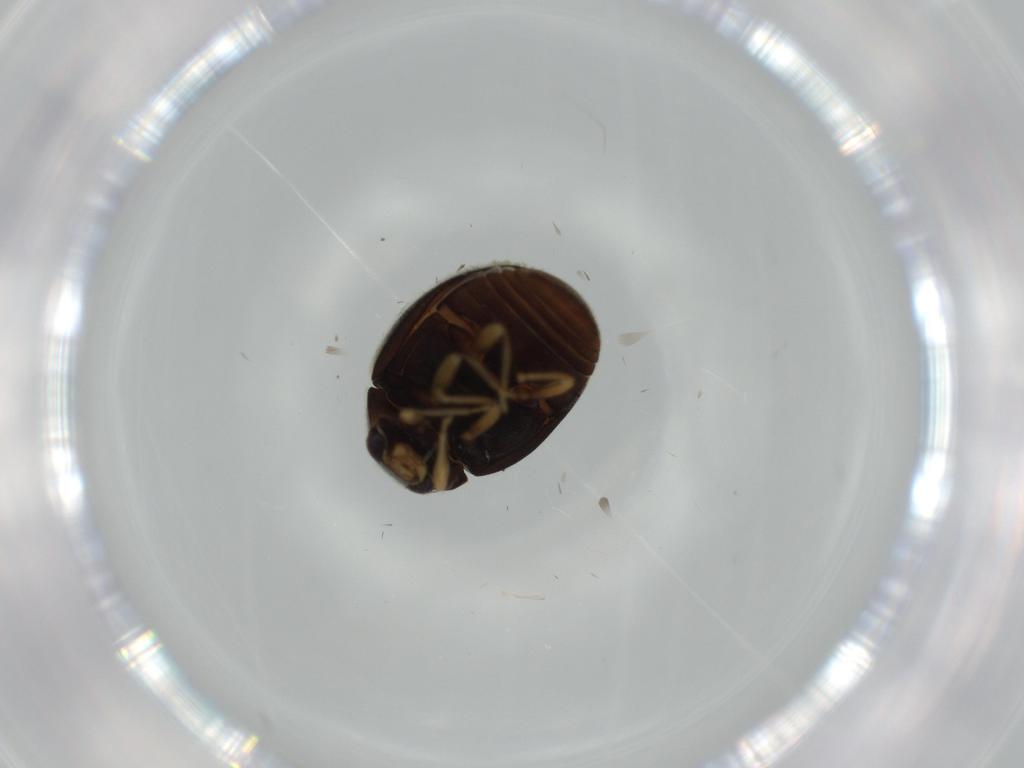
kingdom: Animalia
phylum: Arthropoda
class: Insecta
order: Coleoptera
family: Coccinellidae
